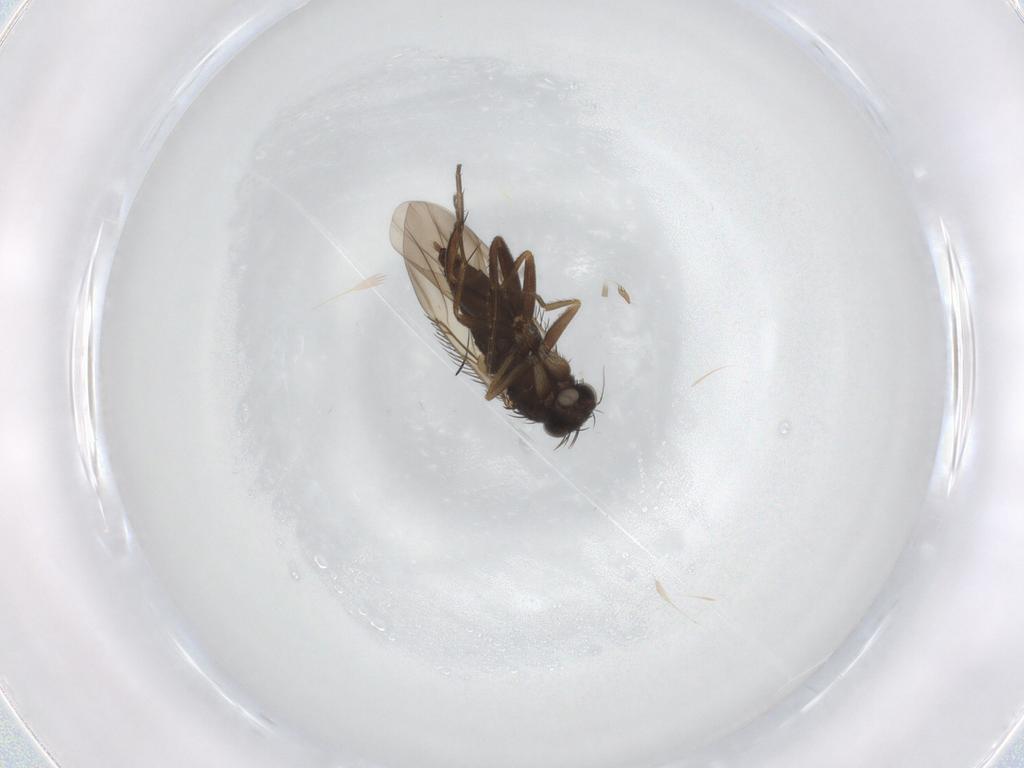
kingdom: Animalia
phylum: Arthropoda
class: Insecta
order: Diptera
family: Phoridae
